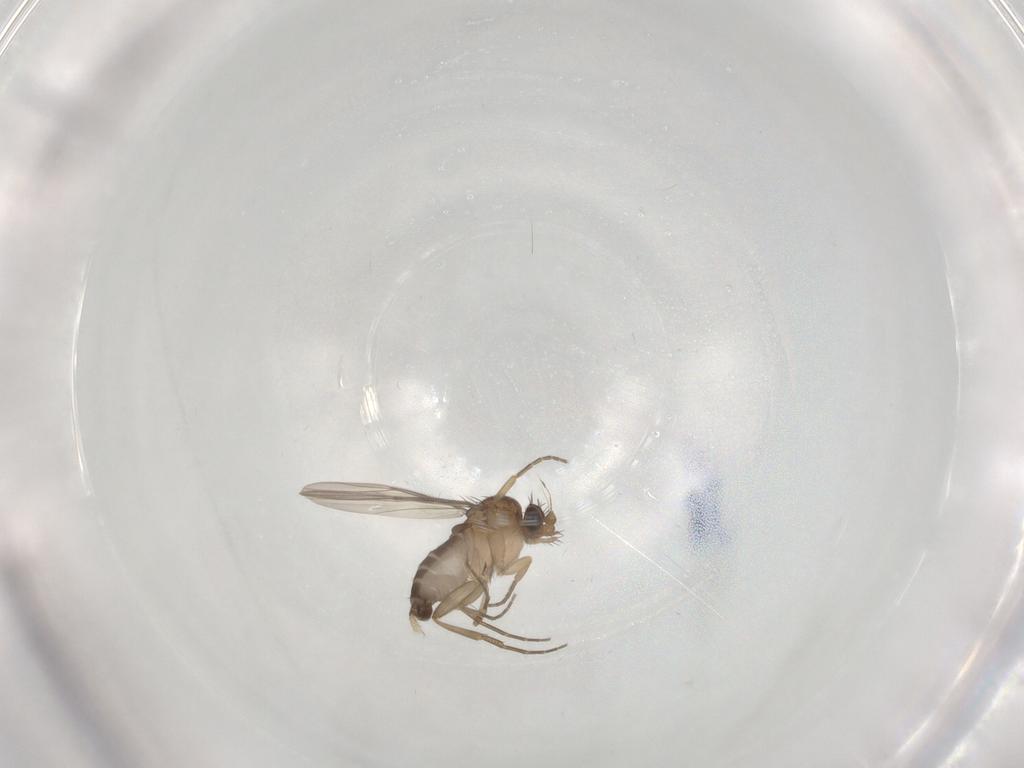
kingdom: Animalia
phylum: Arthropoda
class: Insecta
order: Diptera
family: Phoridae
